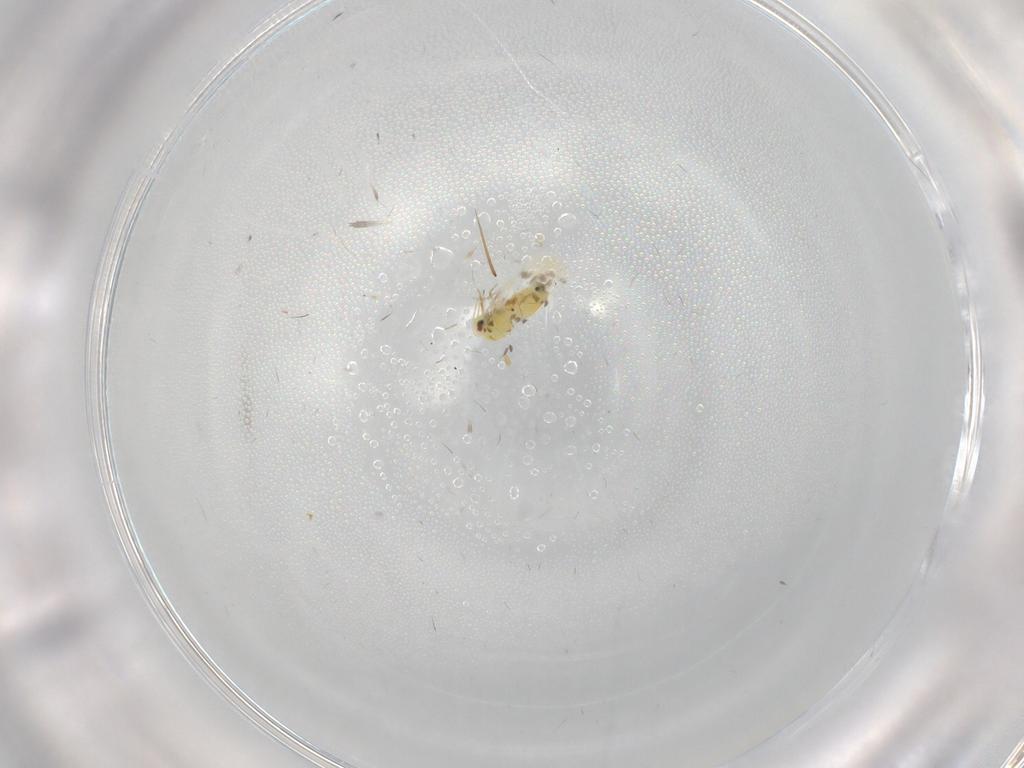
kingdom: Animalia
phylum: Arthropoda
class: Insecta
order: Hemiptera
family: Aleyrodidae
